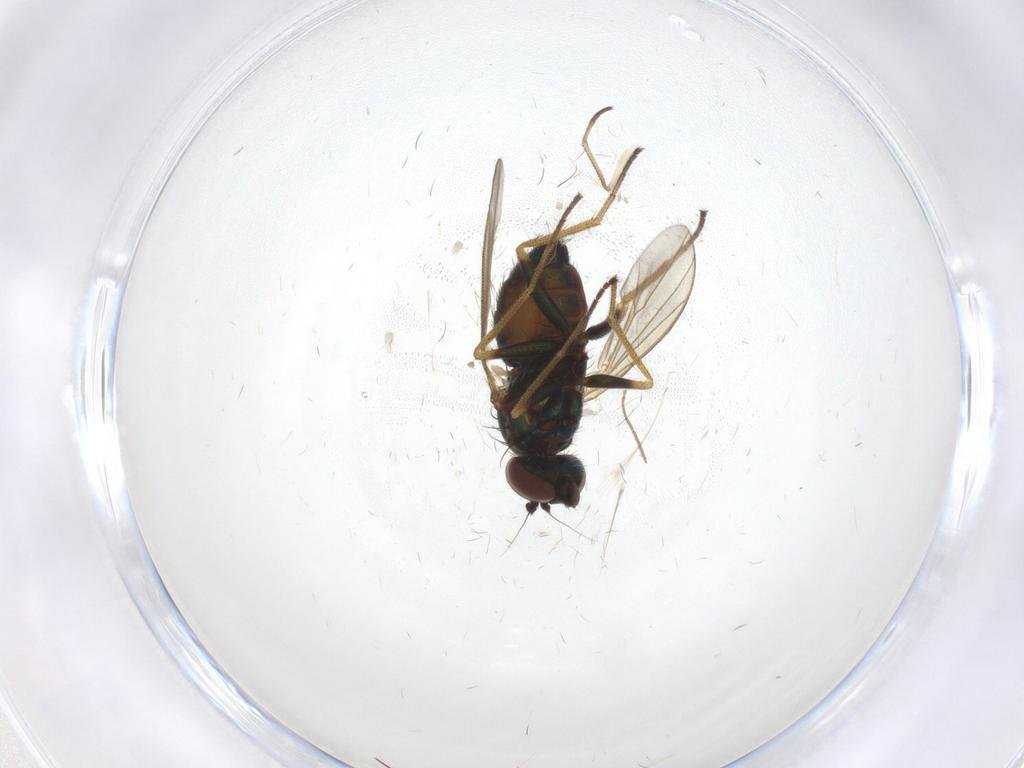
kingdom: Animalia
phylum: Arthropoda
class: Insecta
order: Diptera
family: Dolichopodidae
